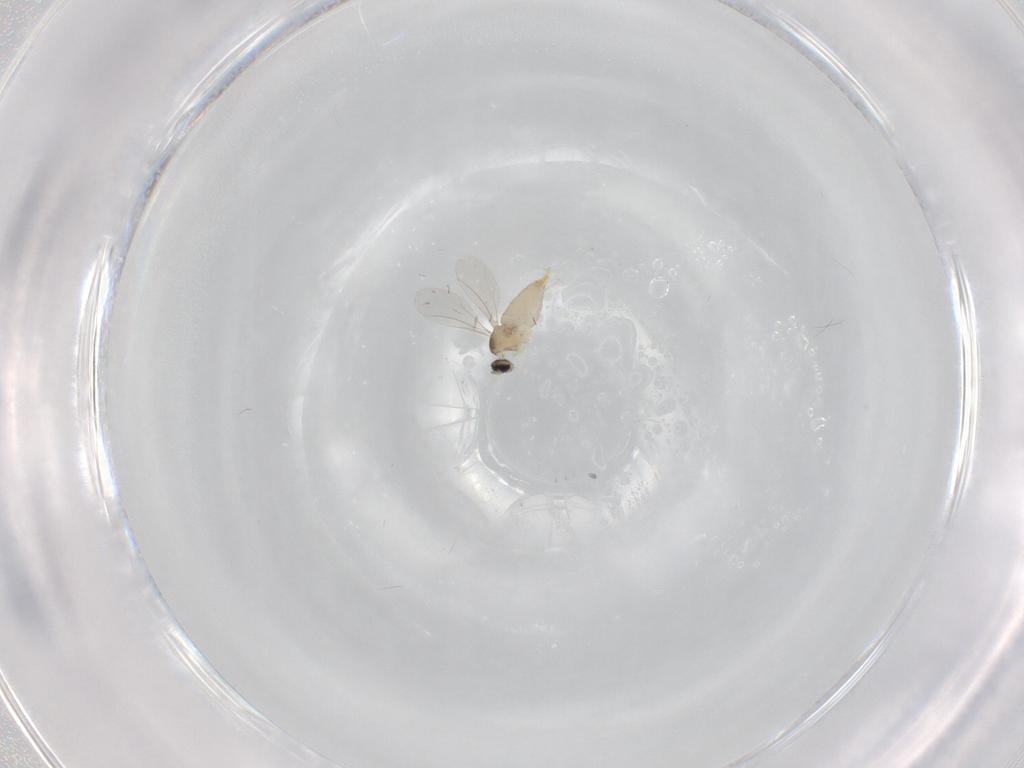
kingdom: Animalia
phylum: Arthropoda
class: Insecta
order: Diptera
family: Cecidomyiidae
